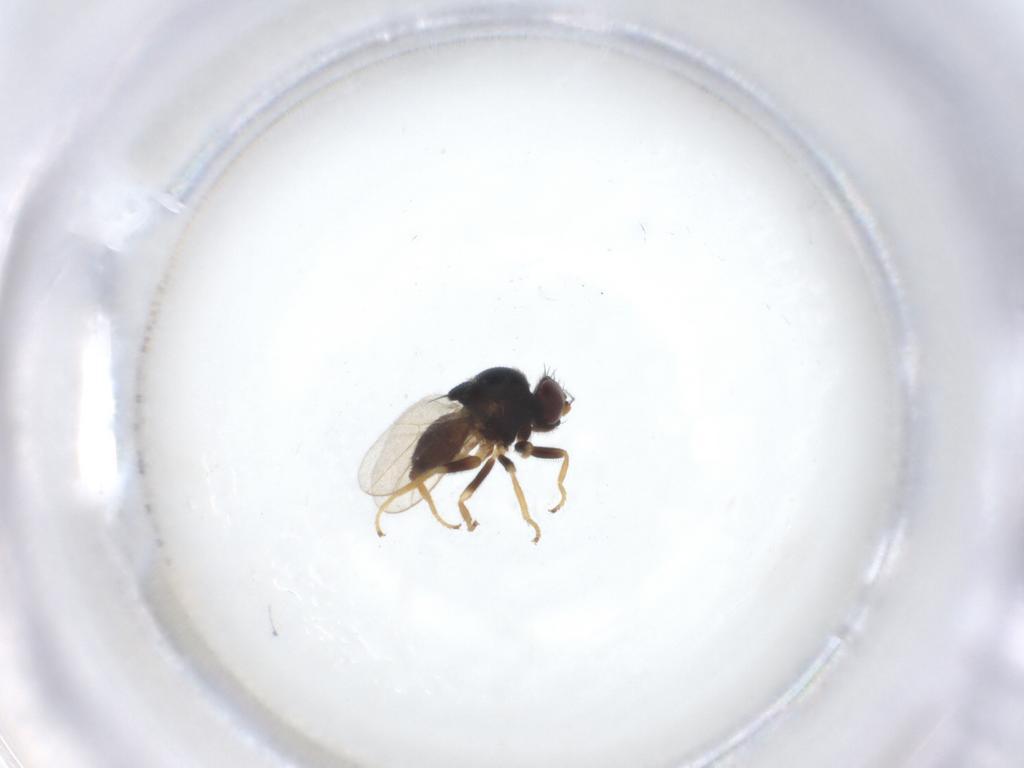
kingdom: Animalia
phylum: Arthropoda
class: Insecta
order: Diptera
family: Chloropidae
